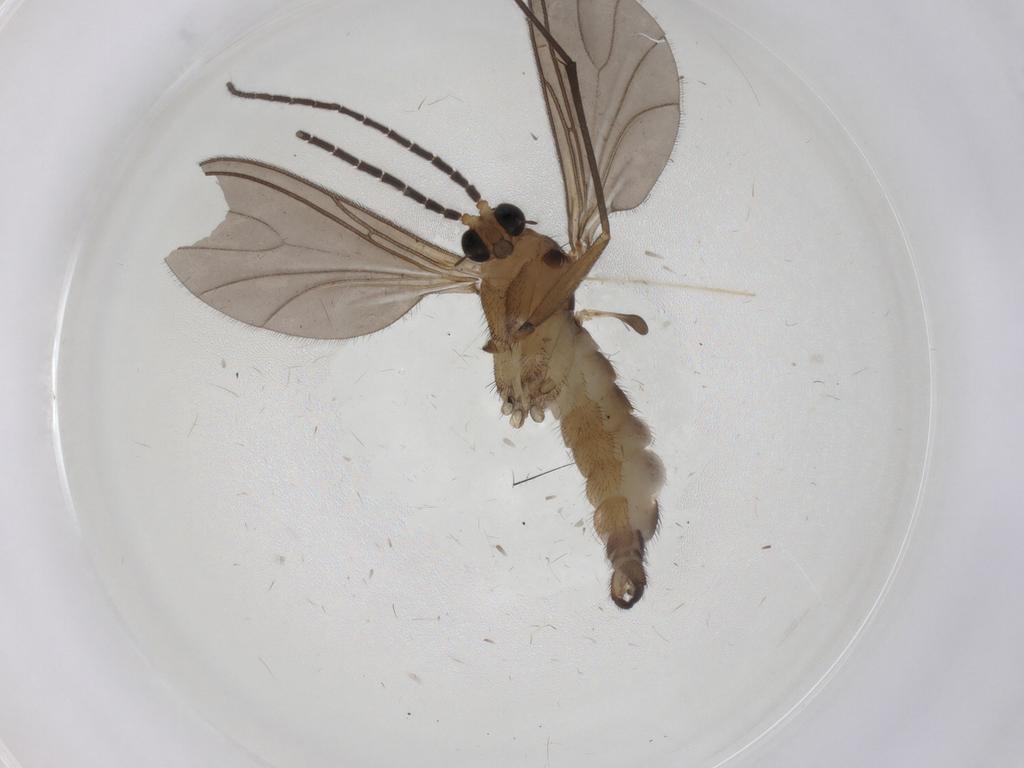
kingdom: Animalia
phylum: Arthropoda
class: Insecta
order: Diptera
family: Sciaridae
